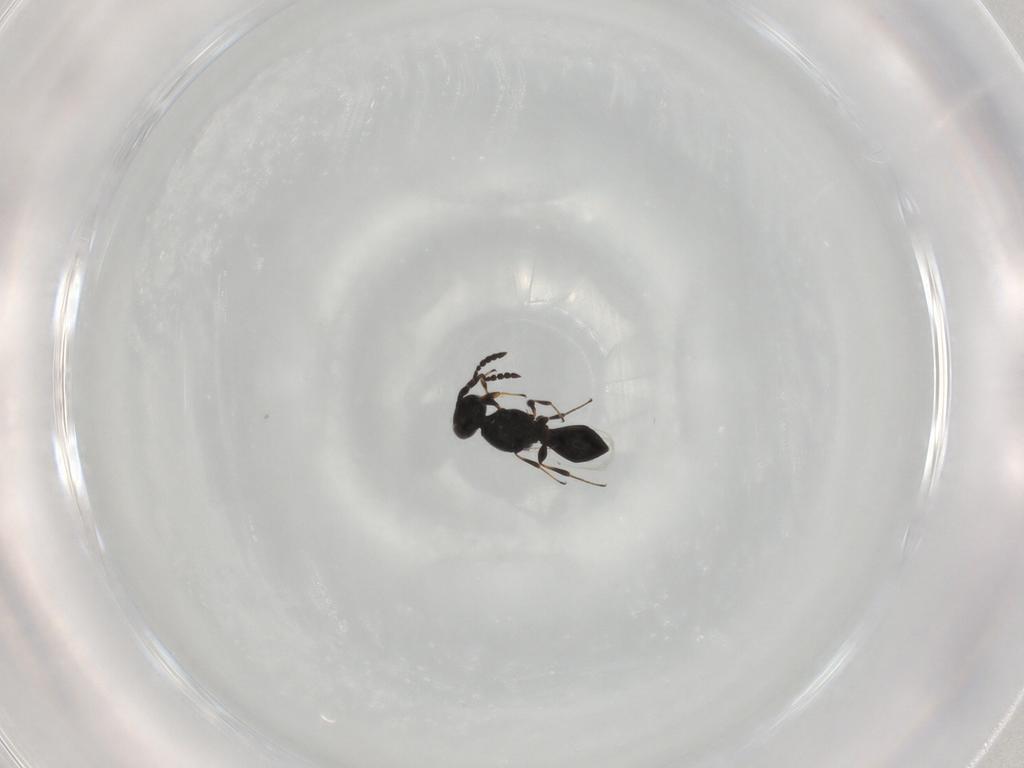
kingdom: Animalia
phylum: Arthropoda
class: Insecta
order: Hymenoptera
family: Platygastridae
